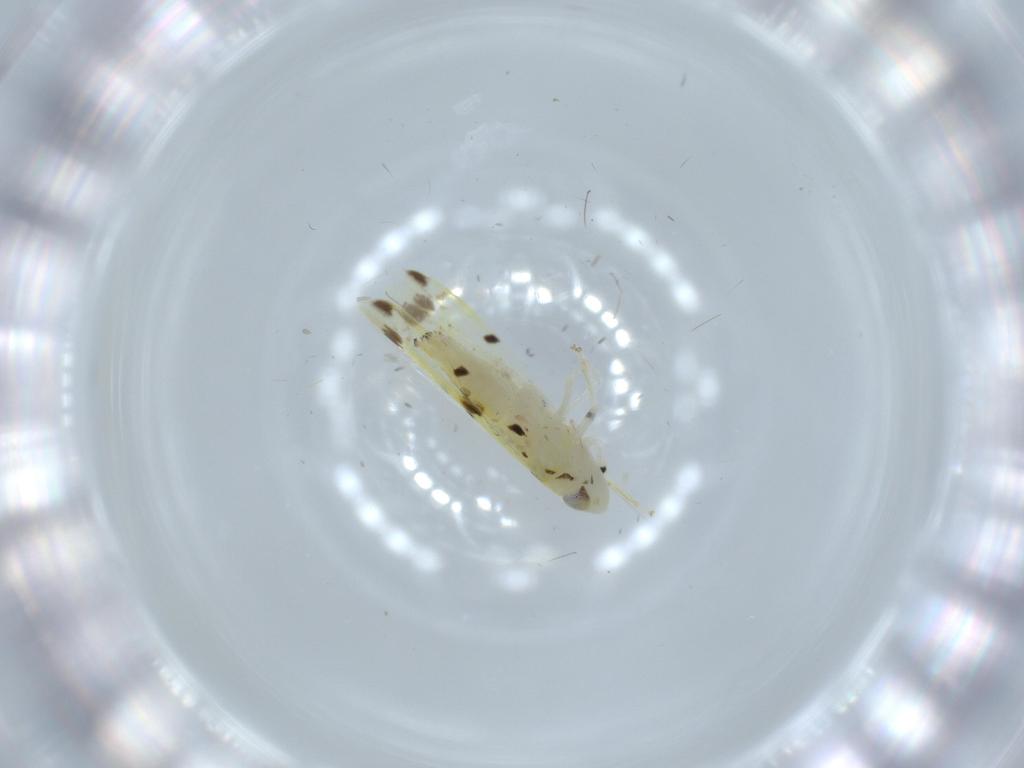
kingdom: Animalia
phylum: Arthropoda
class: Insecta
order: Hemiptera
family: Cicadellidae
